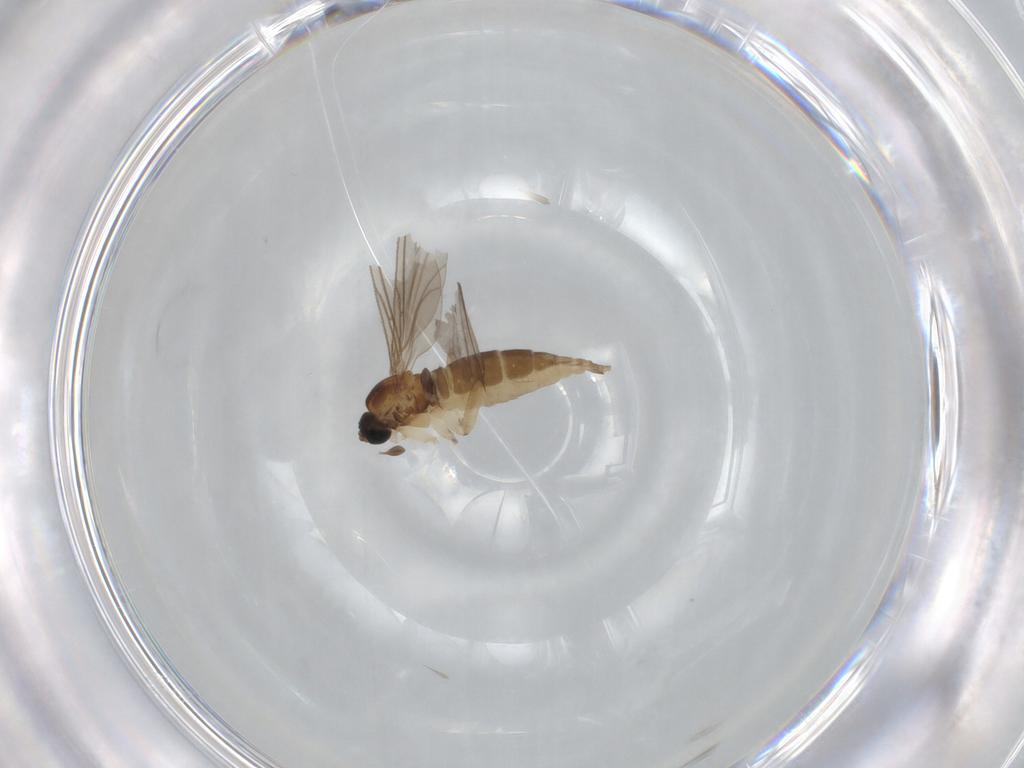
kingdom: Animalia
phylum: Arthropoda
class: Insecta
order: Diptera
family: Sciaridae
